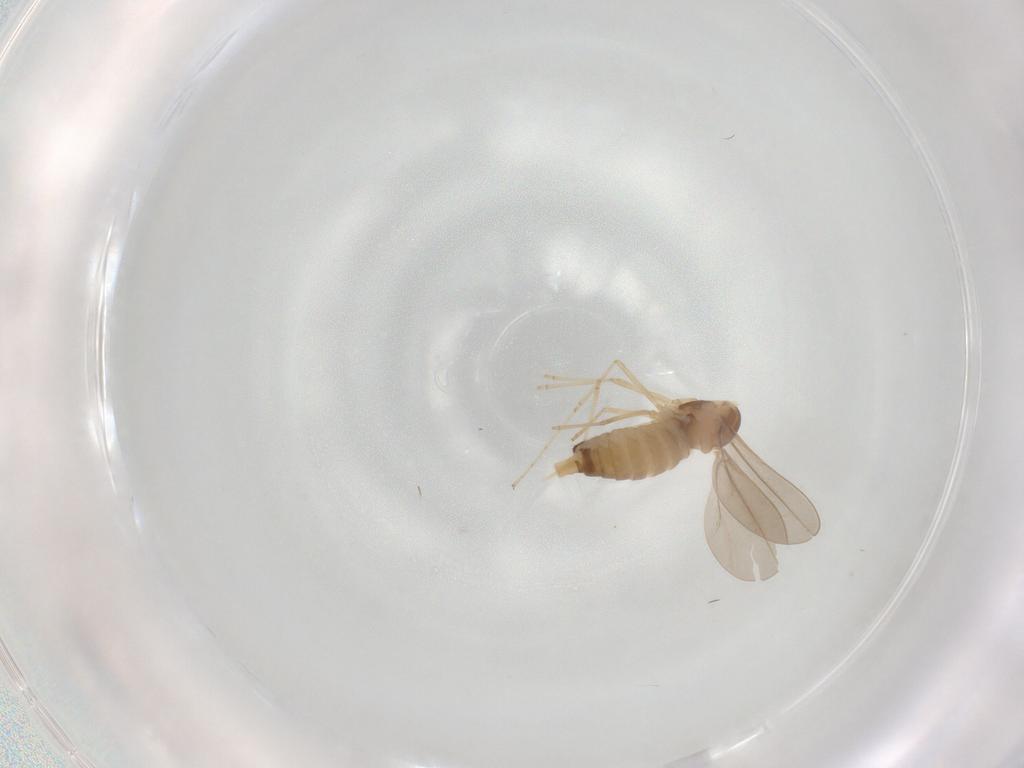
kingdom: Animalia
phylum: Arthropoda
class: Insecta
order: Diptera
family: Cecidomyiidae
